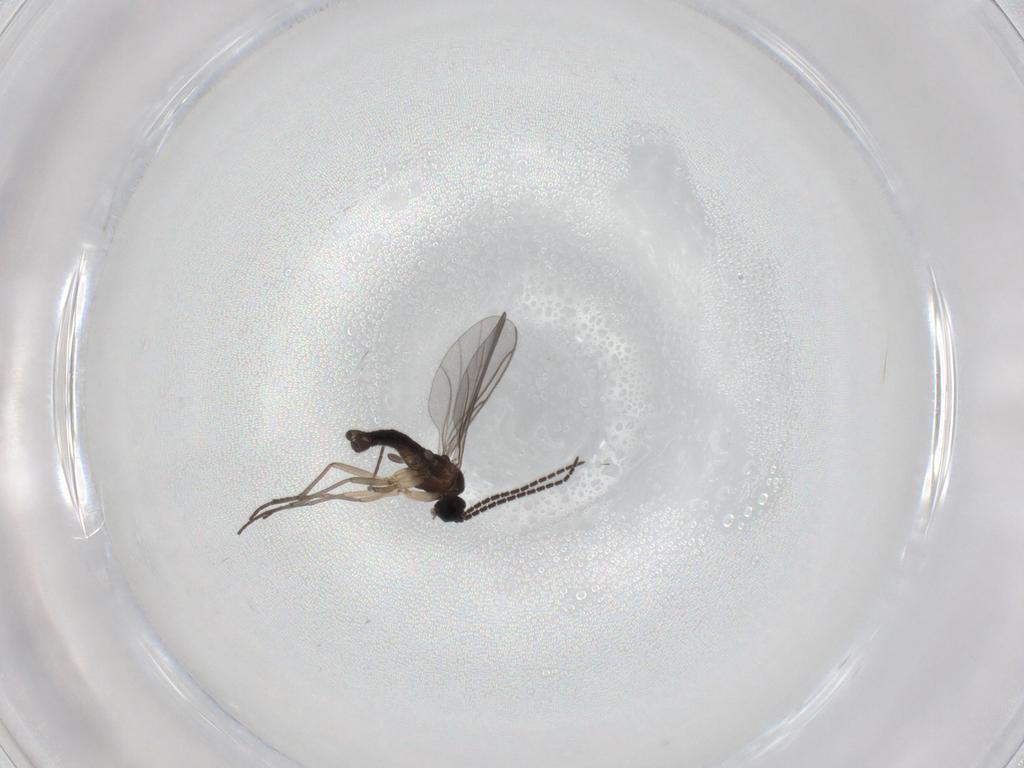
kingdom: Animalia
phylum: Arthropoda
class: Insecta
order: Diptera
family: Sciaridae
